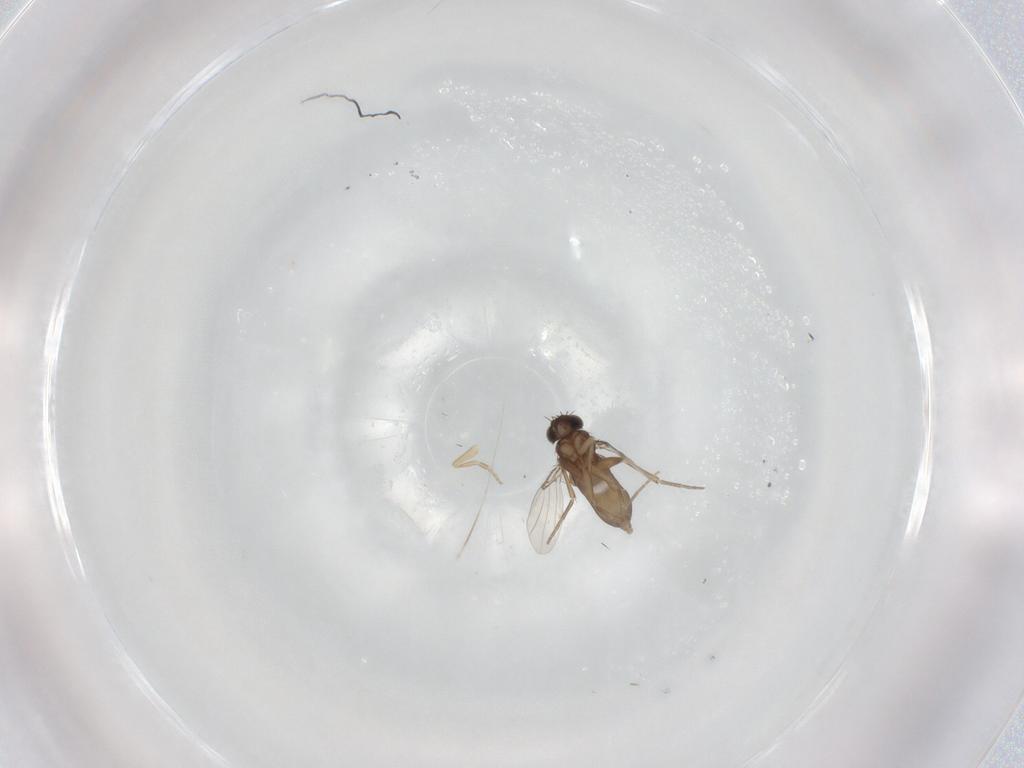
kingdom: Animalia
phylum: Arthropoda
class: Insecta
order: Diptera
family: Phoridae
